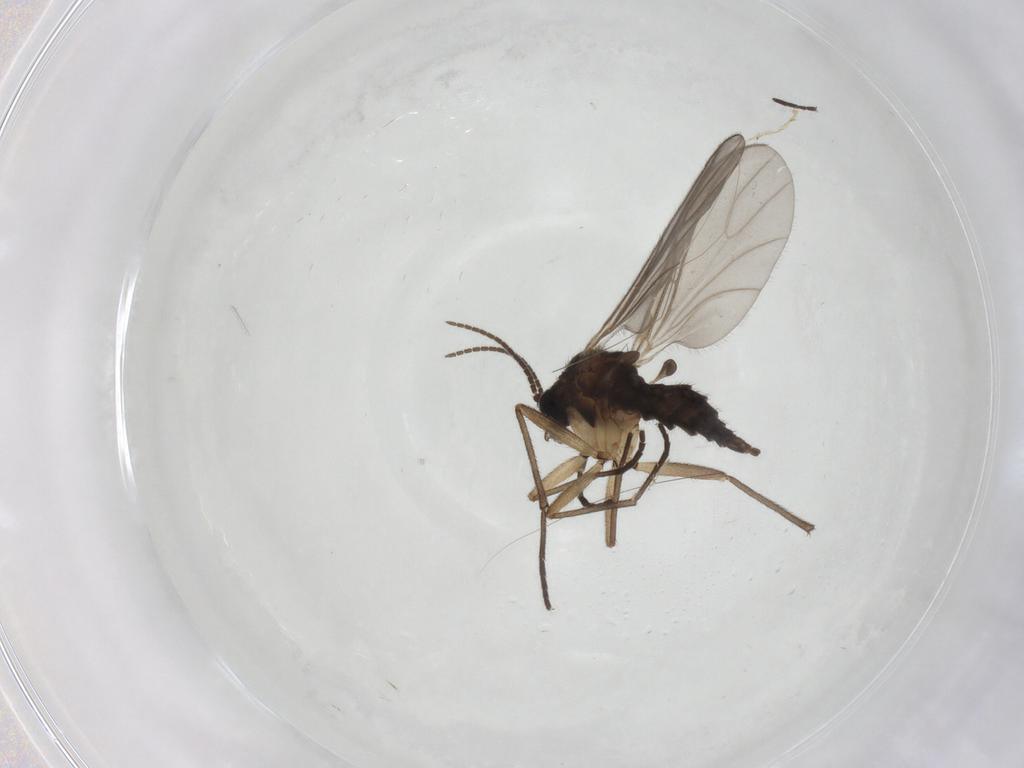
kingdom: Animalia
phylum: Arthropoda
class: Insecta
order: Diptera
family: Sciaridae
